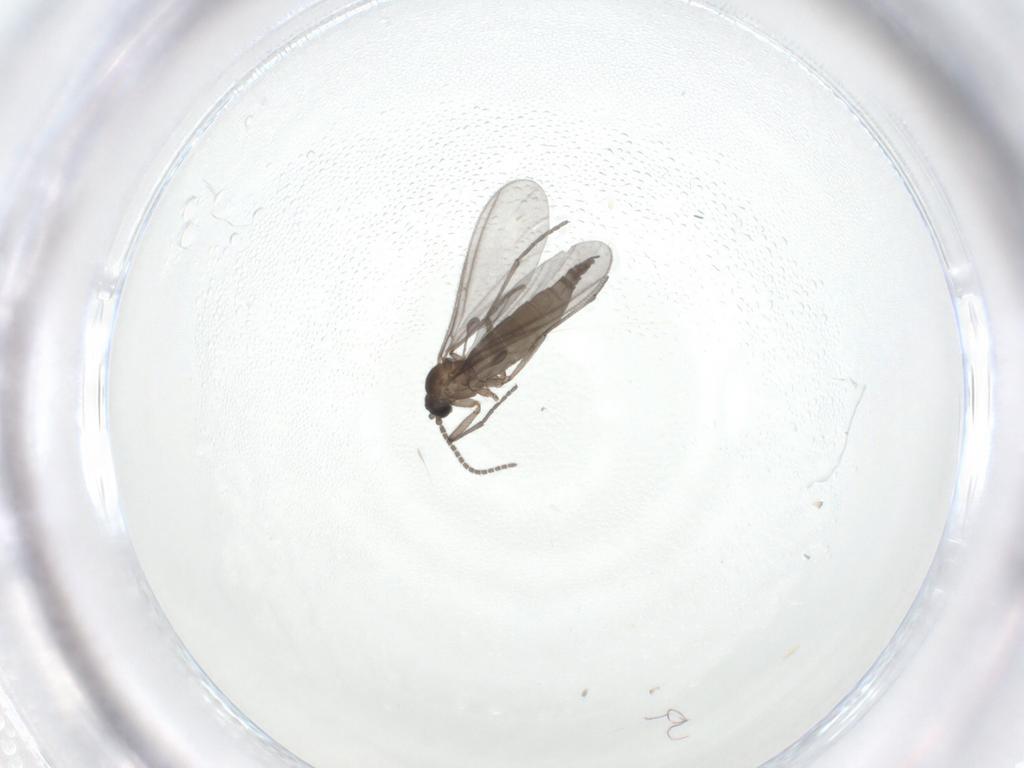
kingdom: Animalia
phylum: Arthropoda
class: Insecta
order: Diptera
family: Sciaridae
